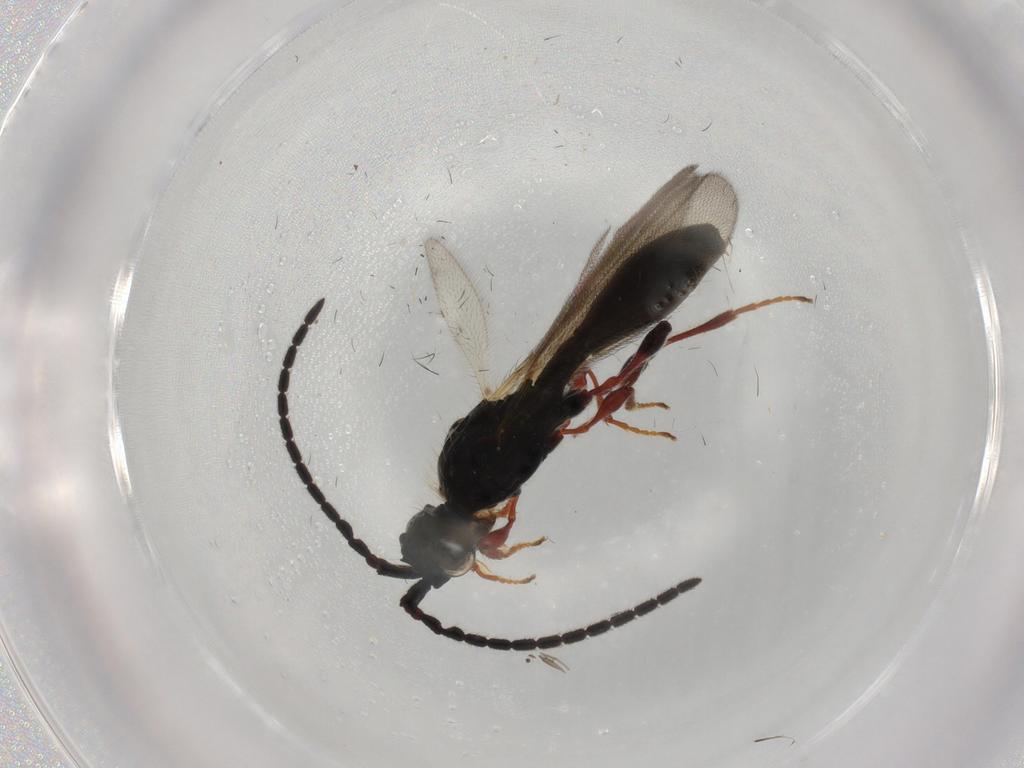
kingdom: Animalia
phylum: Arthropoda
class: Insecta
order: Hymenoptera
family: Diapriidae
